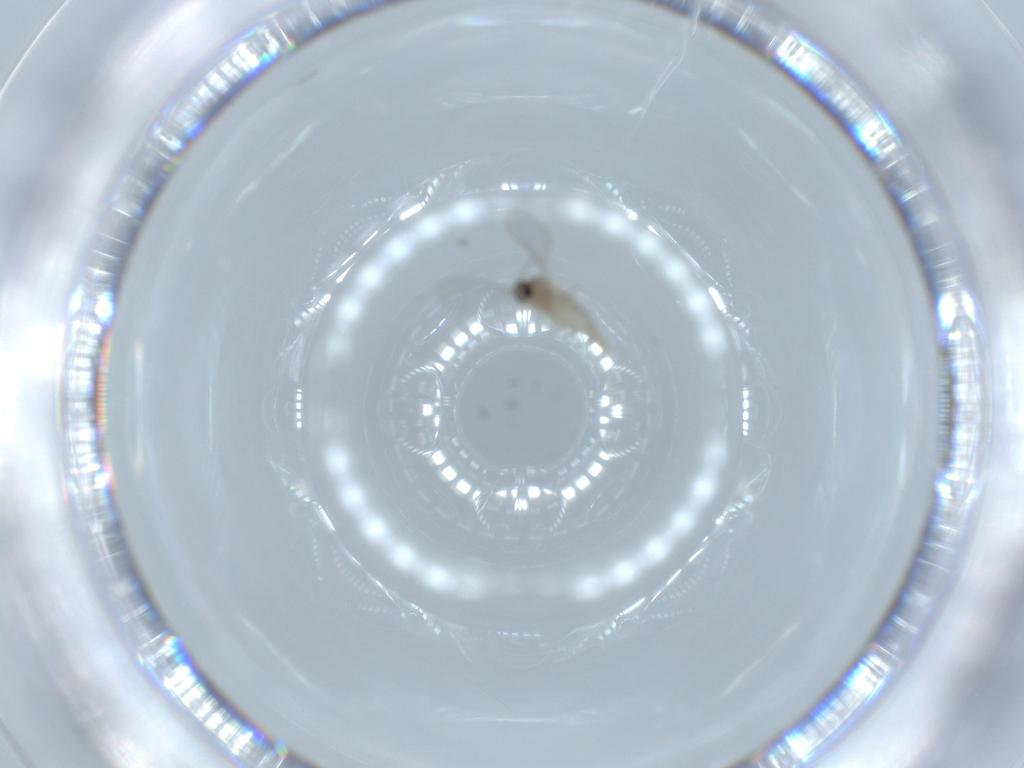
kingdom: Animalia
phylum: Arthropoda
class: Insecta
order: Diptera
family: Cecidomyiidae
